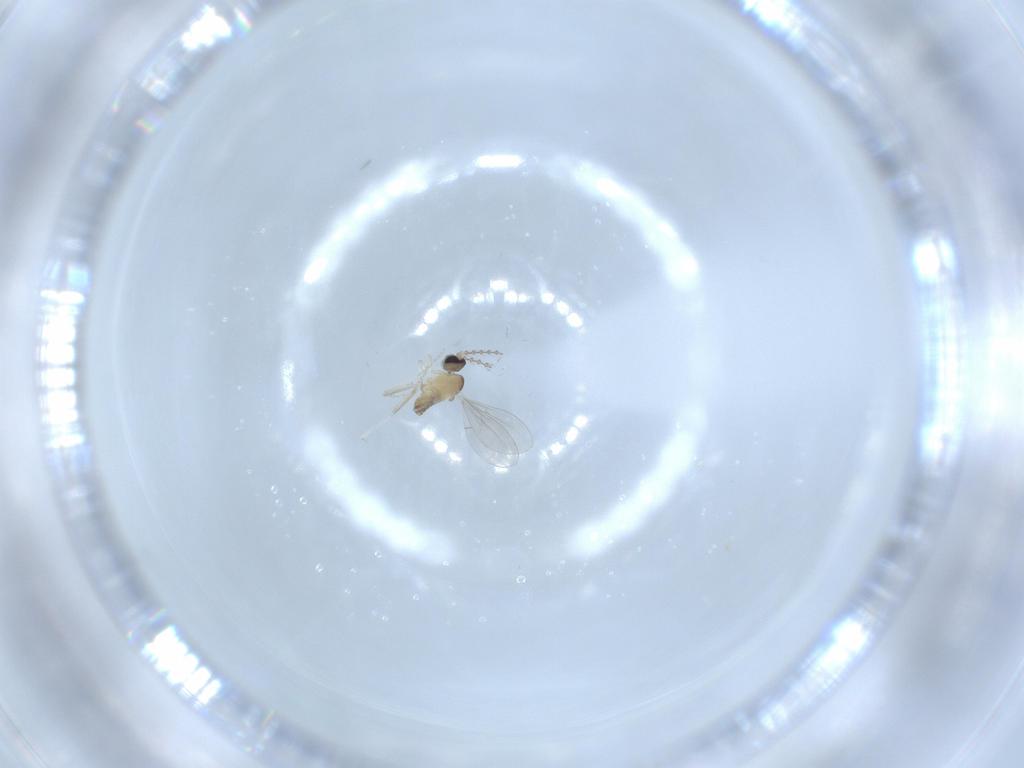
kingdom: Animalia
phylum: Arthropoda
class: Insecta
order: Diptera
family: Cecidomyiidae
